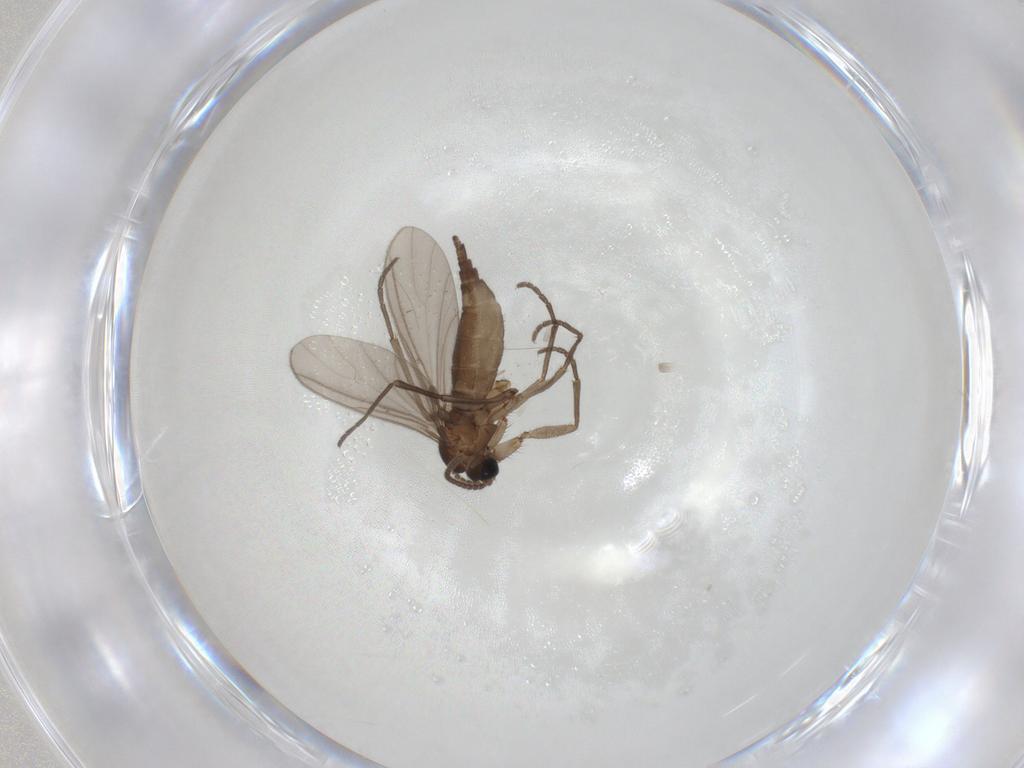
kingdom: Animalia
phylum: Arthropoda
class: Insecta
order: Diptera
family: Sciaridae
